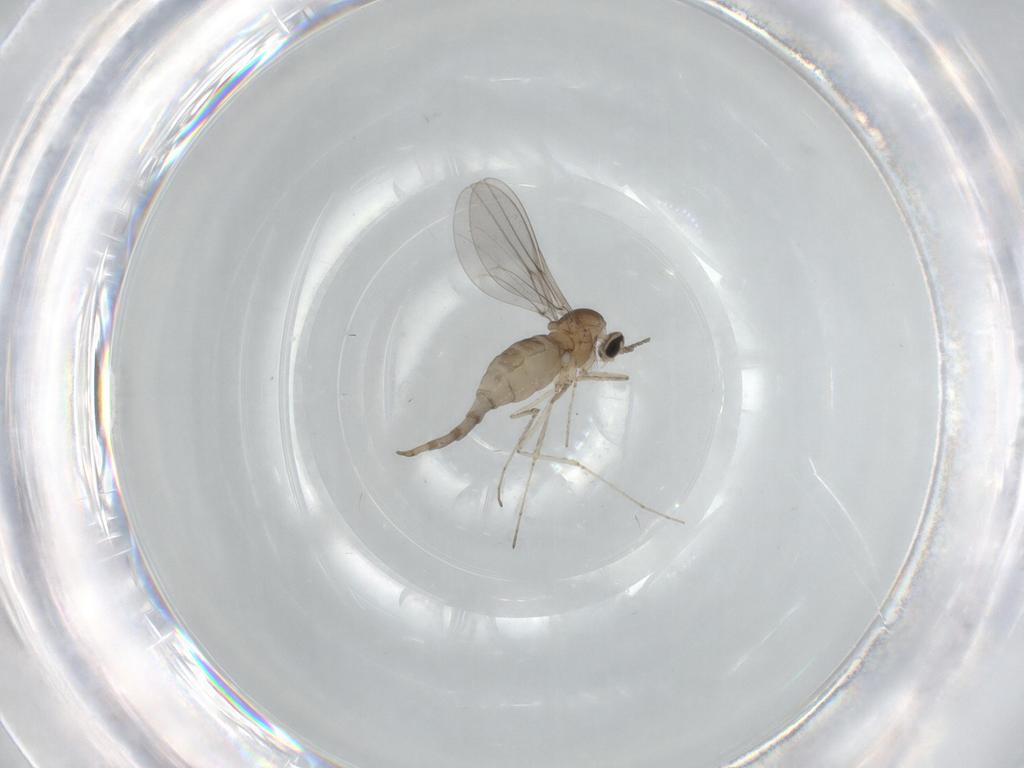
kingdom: Animalia
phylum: Arthropoda
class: Insecta
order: Diptera
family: Cecidomyiidae
